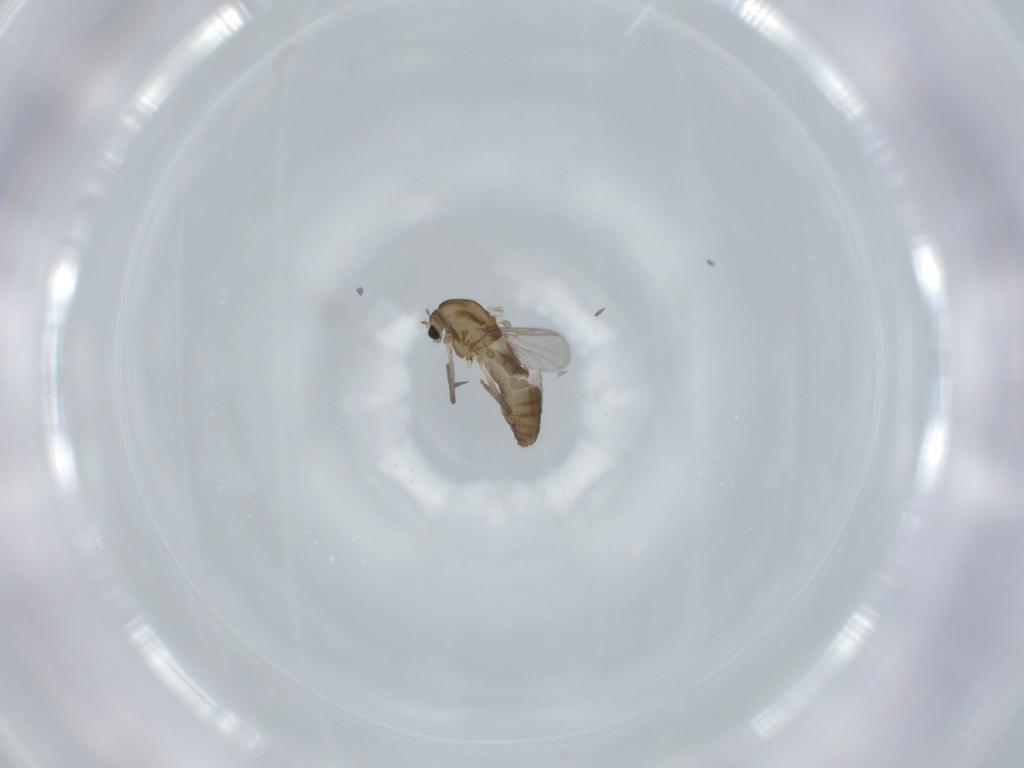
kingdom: Animalia
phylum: Arthropoda
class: Insecta
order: Diptera
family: Chironomidae
